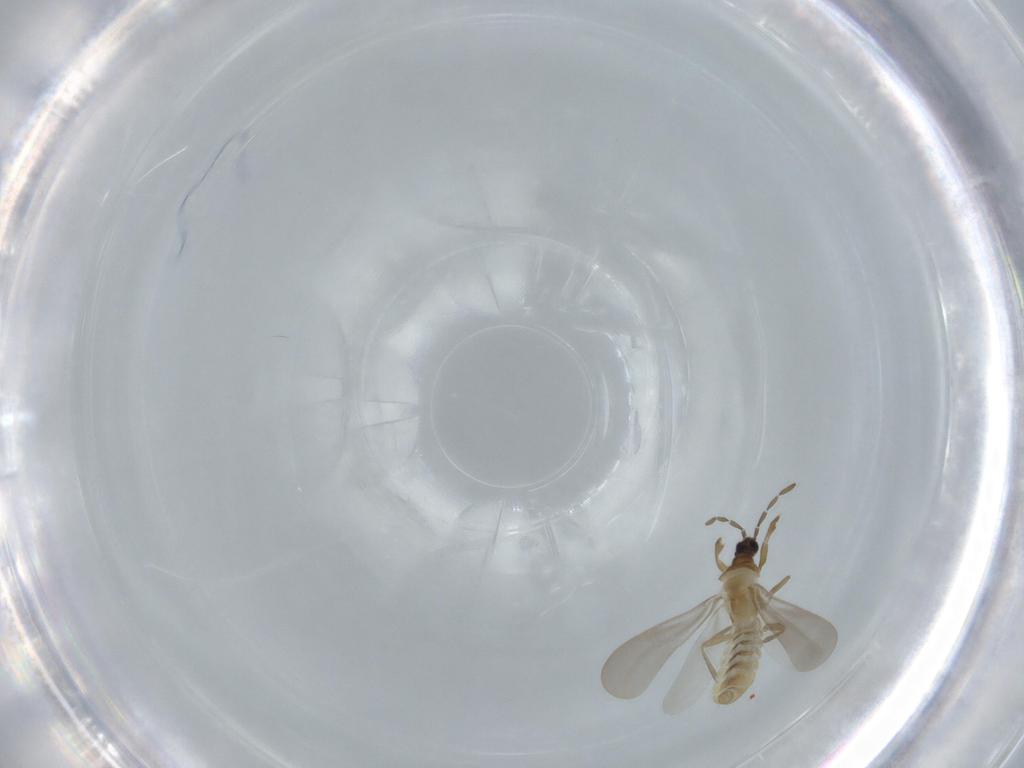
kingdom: Animalia
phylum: Arthropoda
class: Insecta
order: Hemiptera
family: Enicocephalidae
